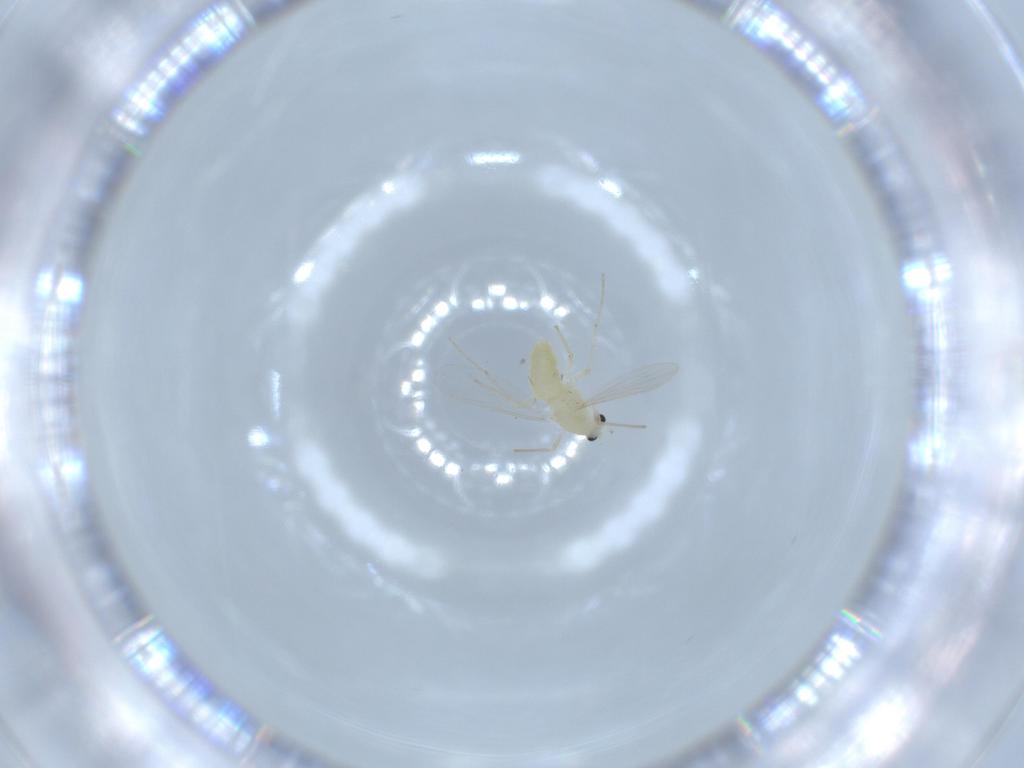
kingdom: Animalia
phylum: Arthropoda
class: Insecta
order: Diptera
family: Chironomidae
